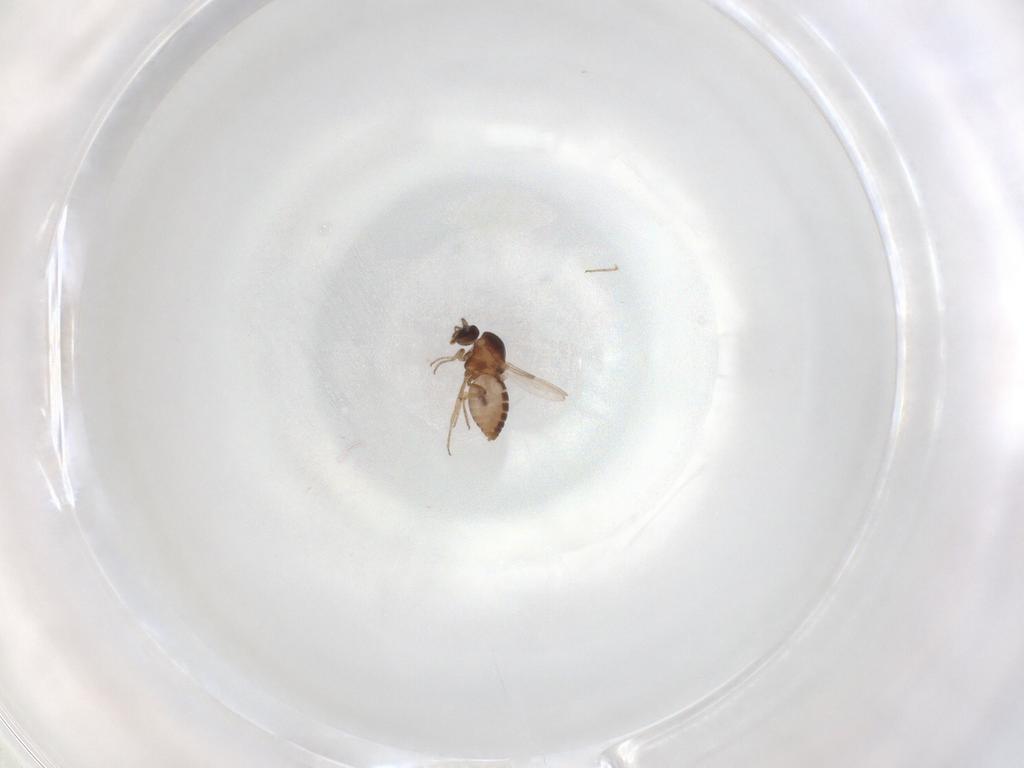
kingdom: Animalia
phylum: Arthropoda
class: Insecta
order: Diptera
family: Ceratopogonidae
